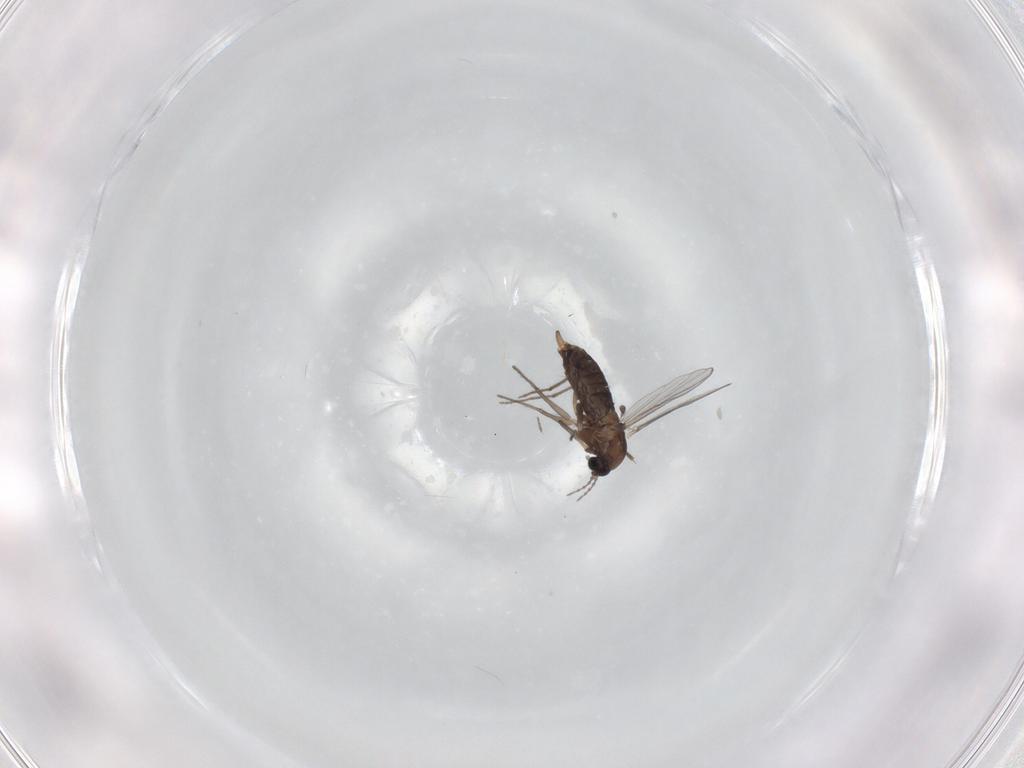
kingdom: Animalia
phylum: Arthropoda
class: Insecta
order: Diptera
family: Chironomidae
